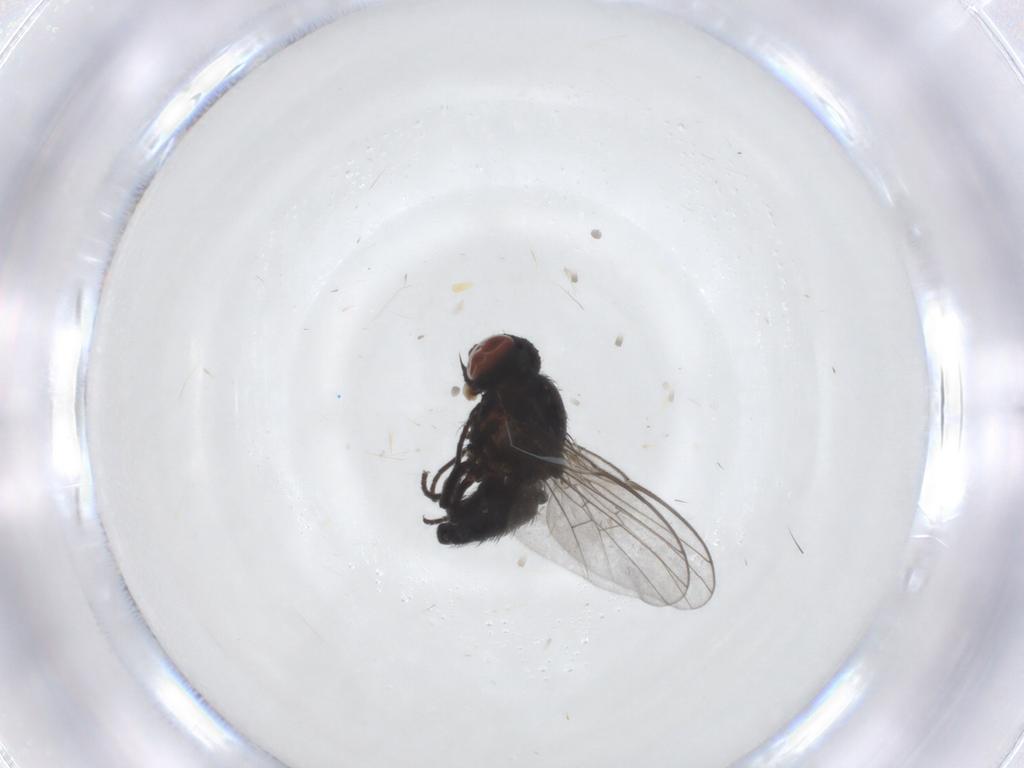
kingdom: Animalia
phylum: Arthropoda
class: Insecta
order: Diptera
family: Agromyzidae
